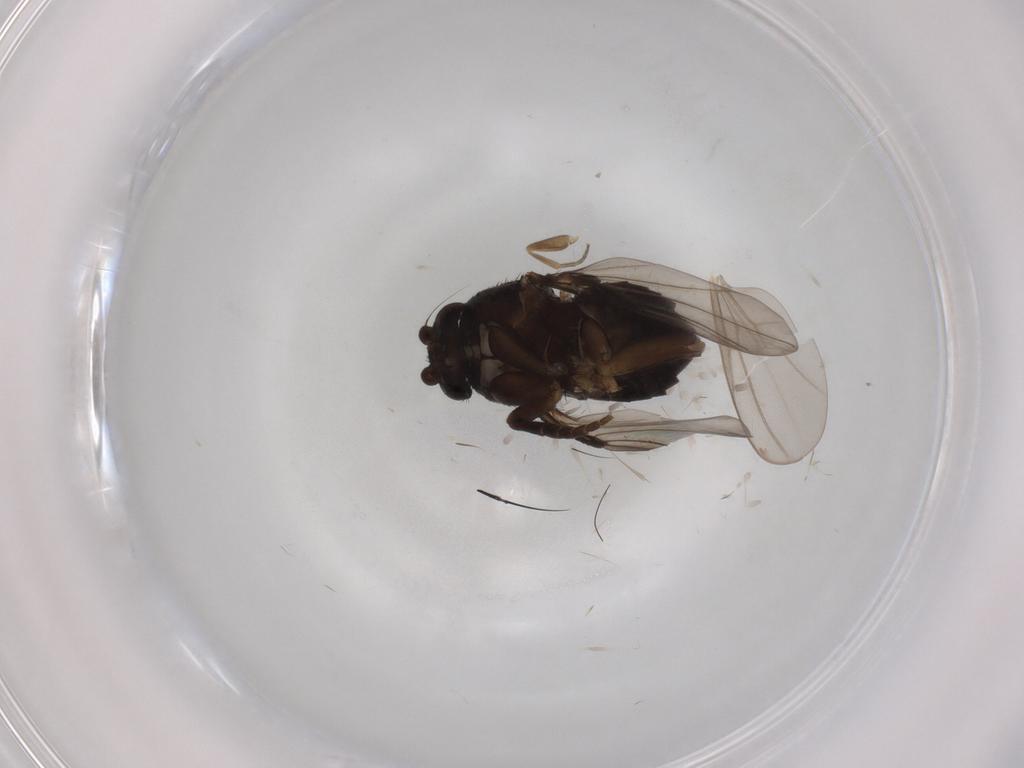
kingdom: Animalia
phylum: Arthropoda
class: Insecta
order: Diptera
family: Phoridae
